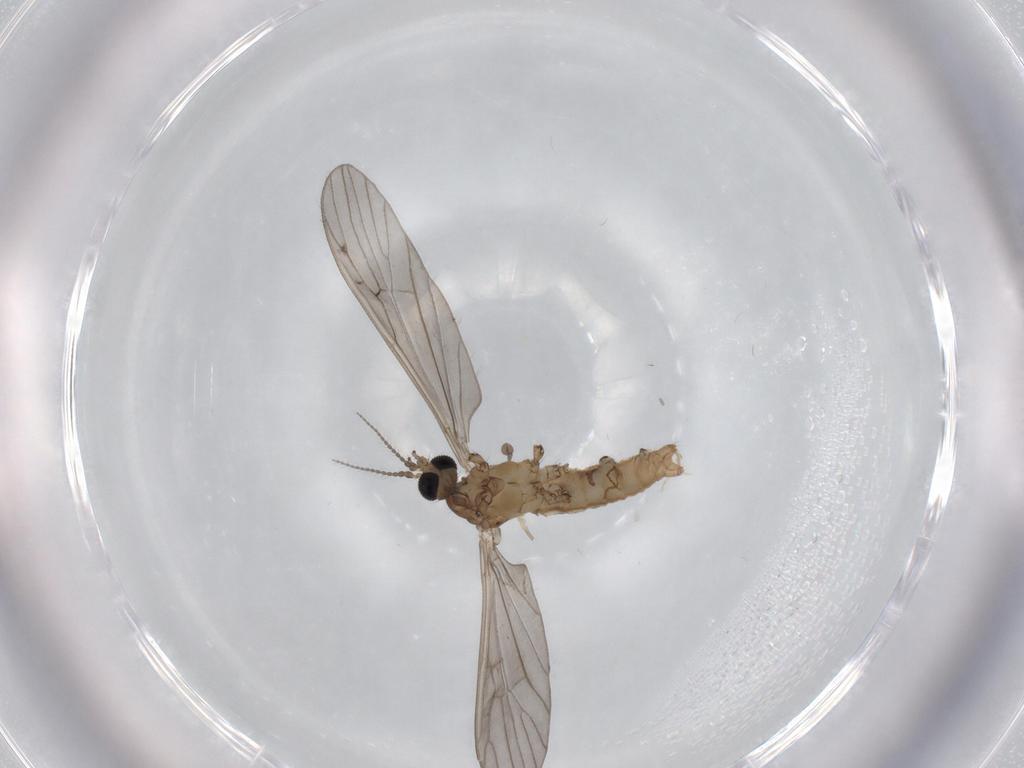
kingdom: Animalia
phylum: Arthropoda
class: Insecta
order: Diptera
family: Limoniidae
